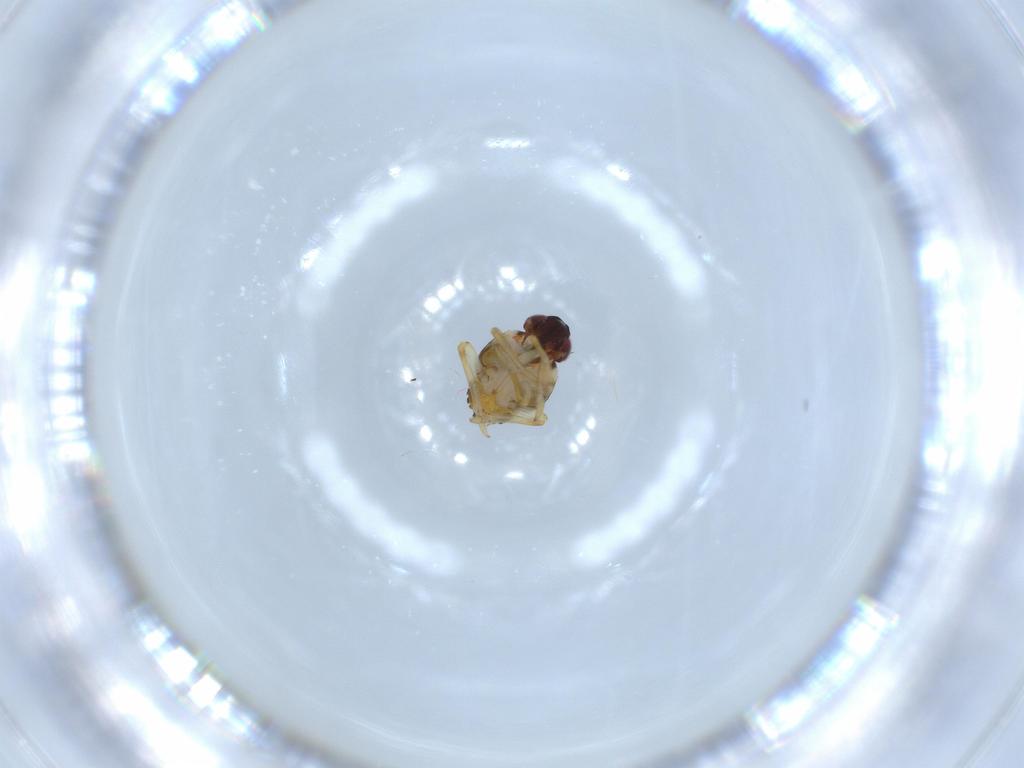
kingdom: Animalia
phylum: Arthropoda
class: Insecta
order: Hemiptera
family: Issidae
